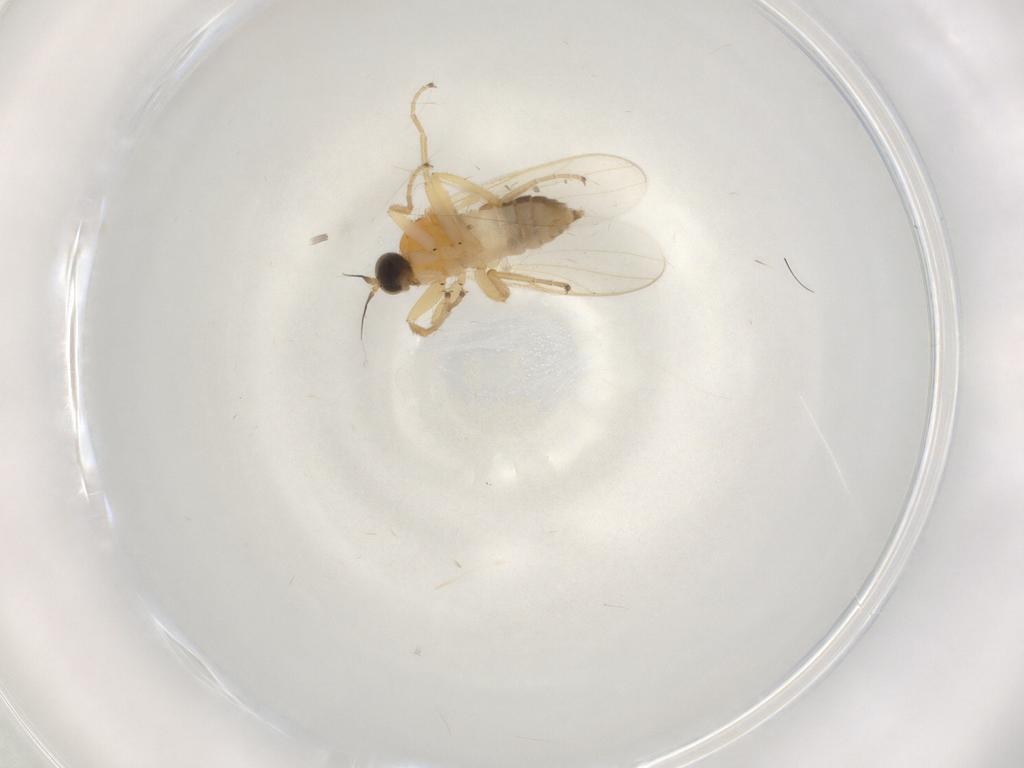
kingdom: Animalia
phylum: Arthropoda
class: Insecta
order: Diptera
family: Hybotidae
